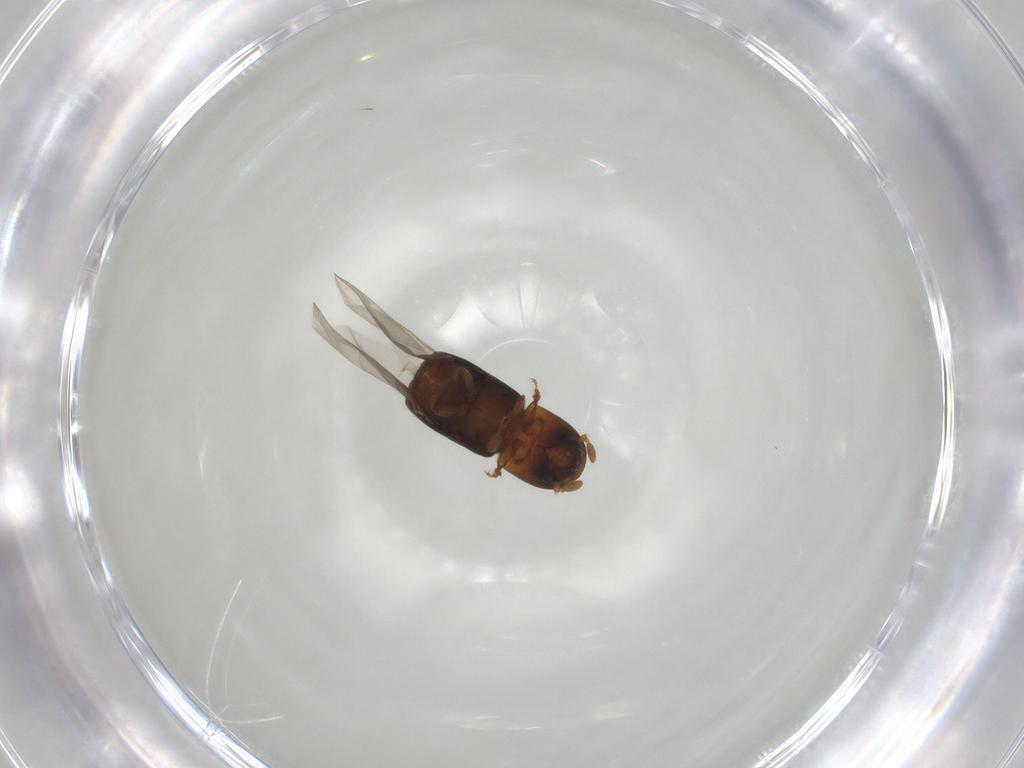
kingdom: Animalia
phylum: Arthropoda
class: Insecta
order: Coleoptera
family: Curculionidae
